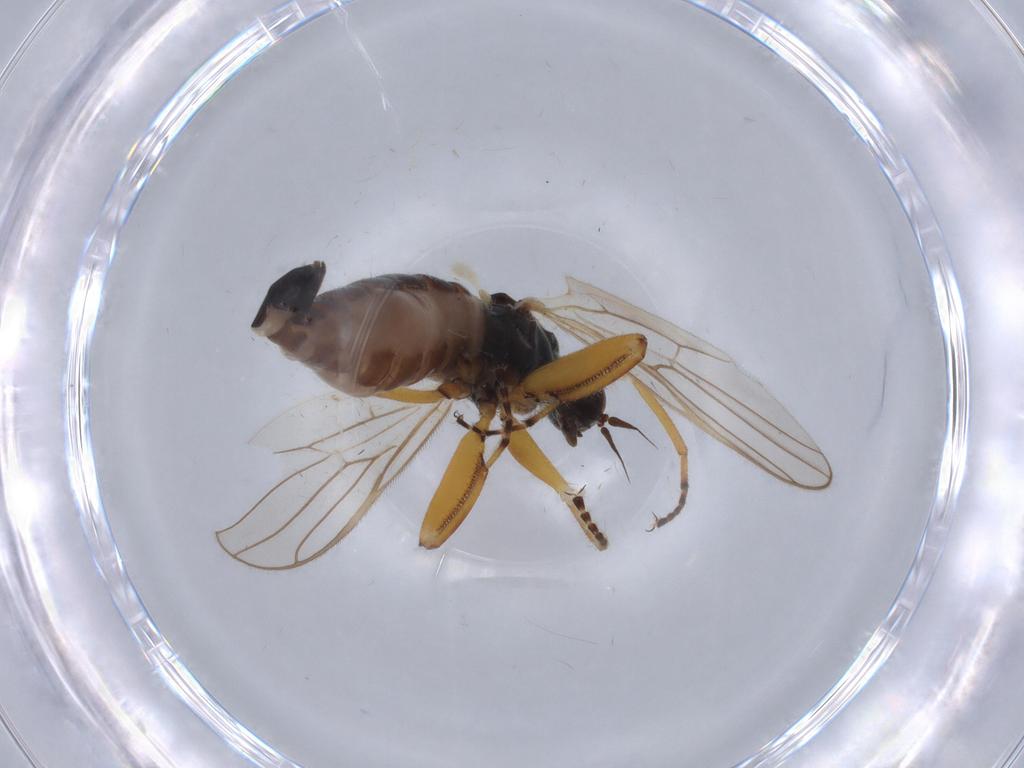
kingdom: Animalia
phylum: Arthropoda
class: Insecta
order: Diptera
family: Hybotidae
